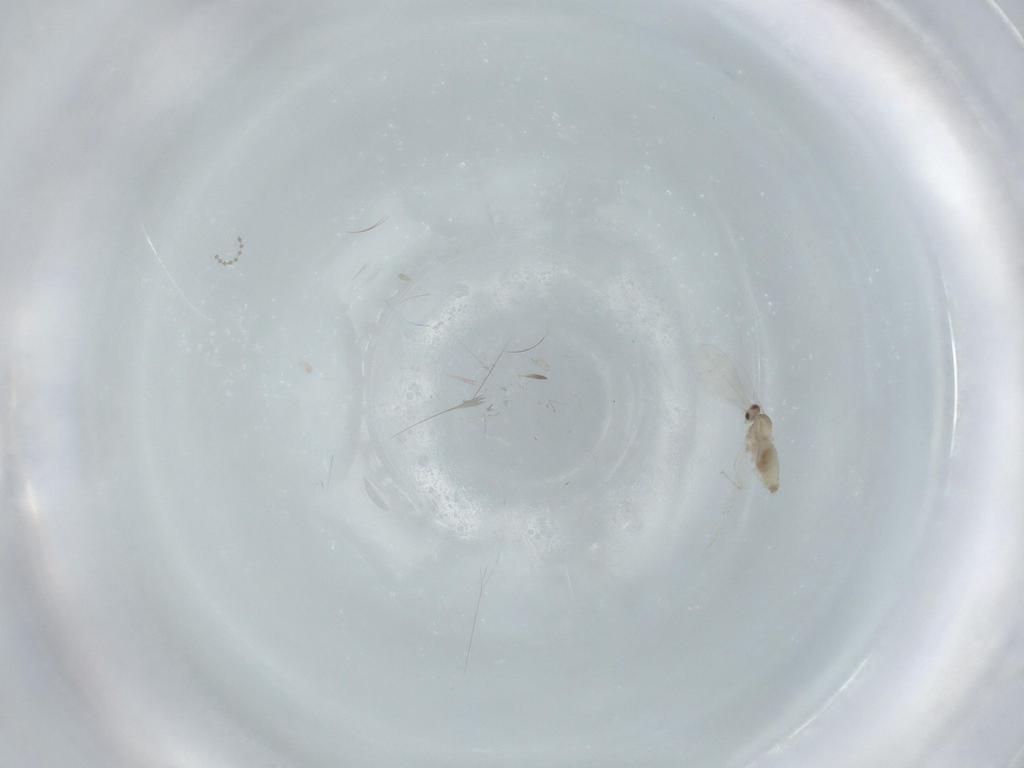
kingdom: Animalia
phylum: Arthropoda
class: Insecta
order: Diptera
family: Cecidomyiidae
